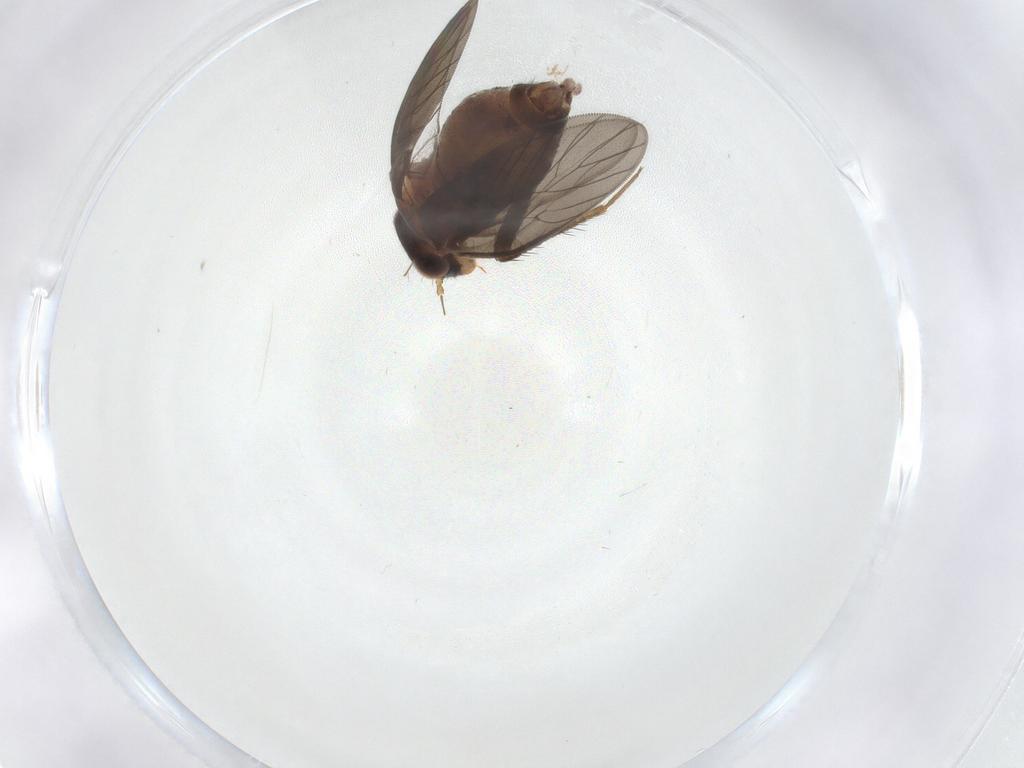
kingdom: Animalia
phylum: Arthropoda
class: Insecta
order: Psocodea
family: Lepidopsocidae
